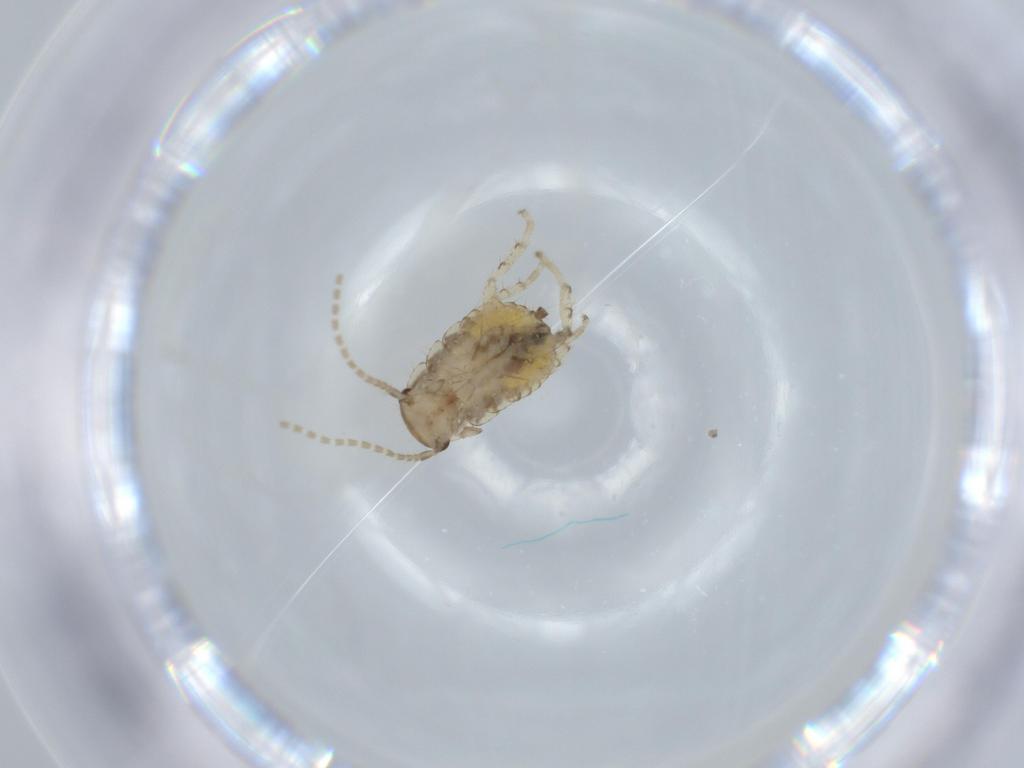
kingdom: Animalia
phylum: Arthropoda
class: Insecta
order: Blattodea
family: Ectobiidae
